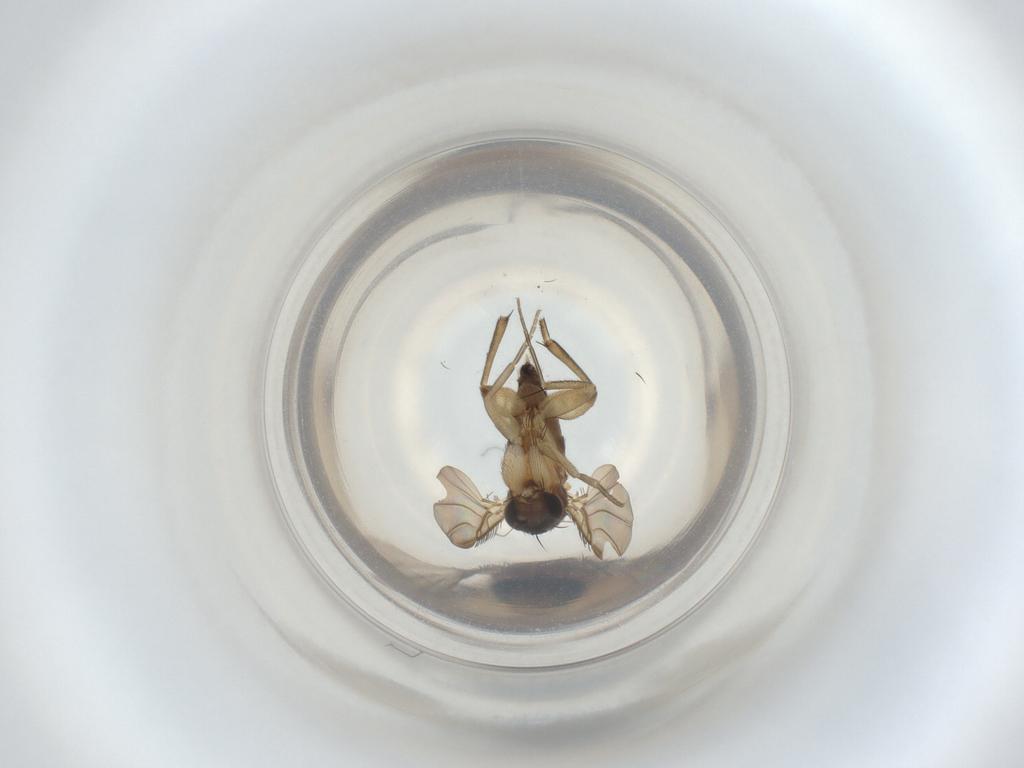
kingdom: Animalia
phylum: Arthropoda
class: Insecta
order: Diptera
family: Phoridae
